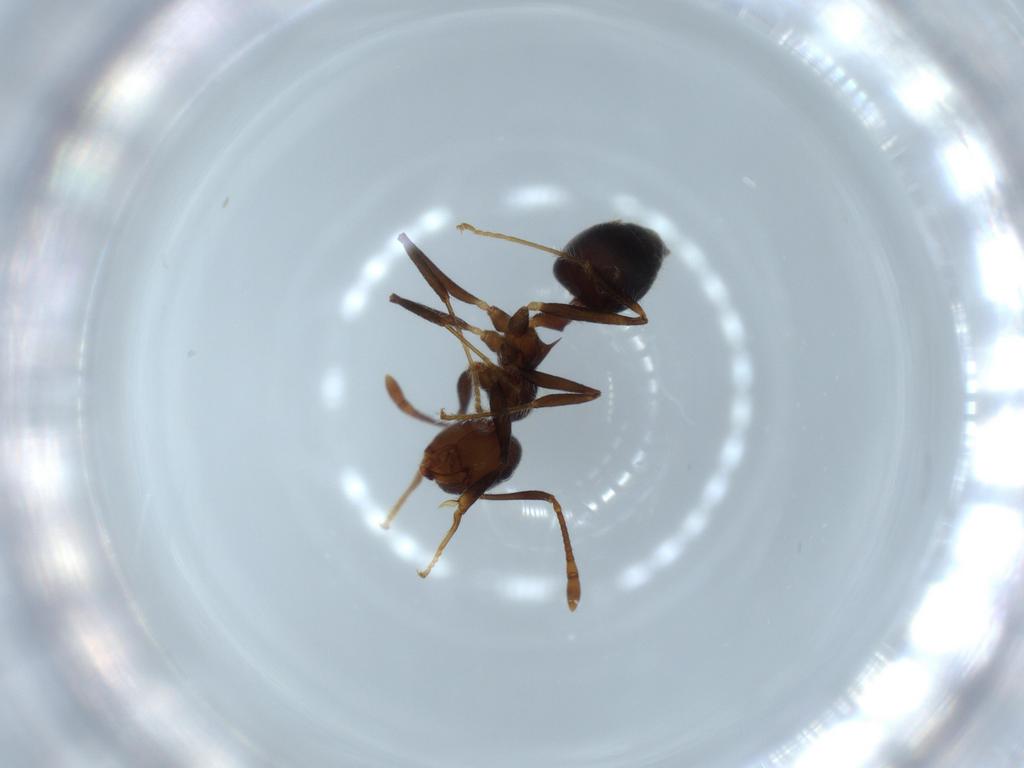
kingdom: Animalia
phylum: Arthropoda
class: Insecta
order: Hymenoptera
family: Formicidae
